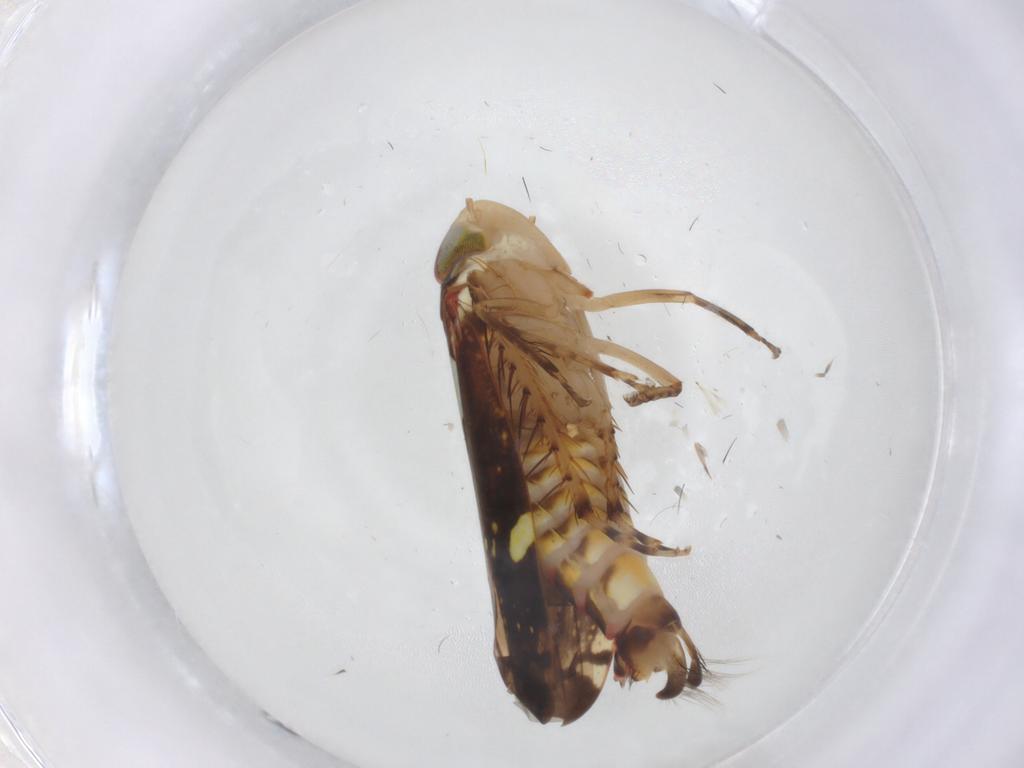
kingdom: Animalia
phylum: Arthropoda
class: Insecta
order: Hemiptera
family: Cicadellidae
